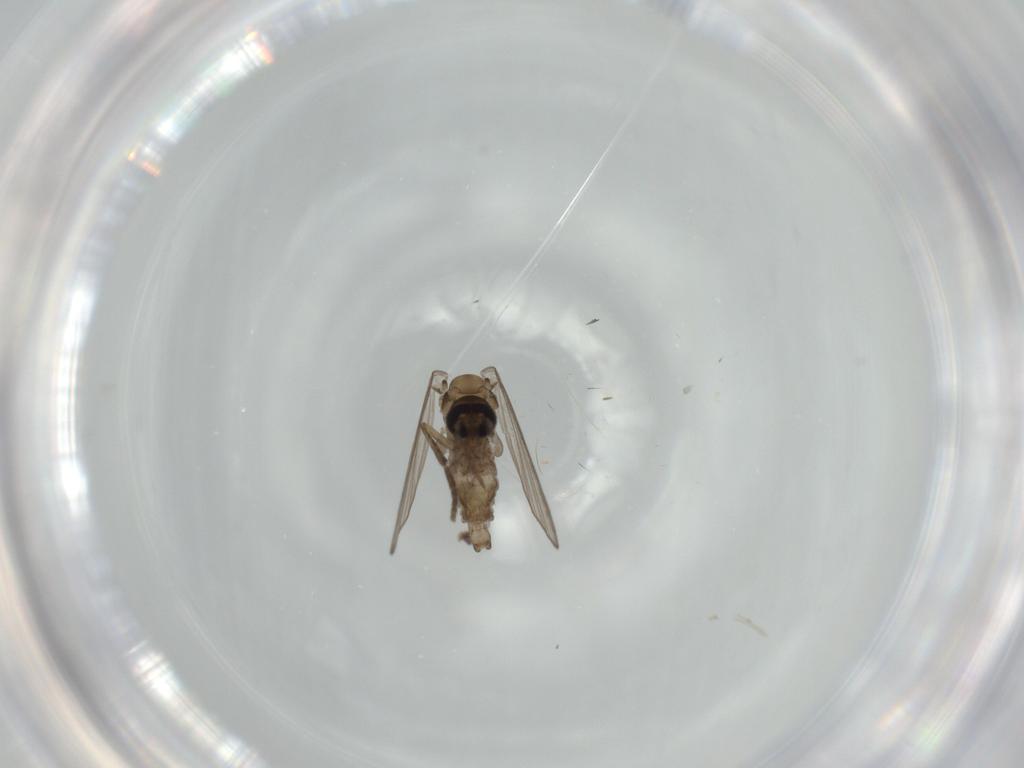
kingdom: Animalia
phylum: Arthropoda
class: Insecta
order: Diptera
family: Psychodidae
